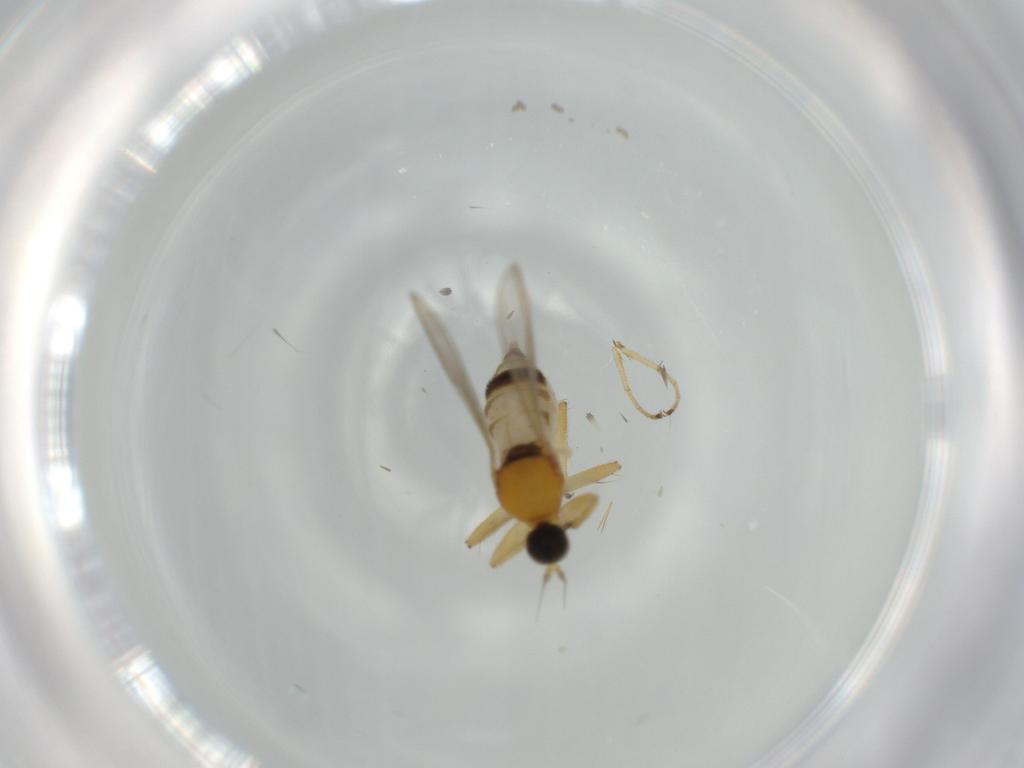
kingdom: Animalia
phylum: Arthropoda
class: Insecta
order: Diptera
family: Hybotidae
